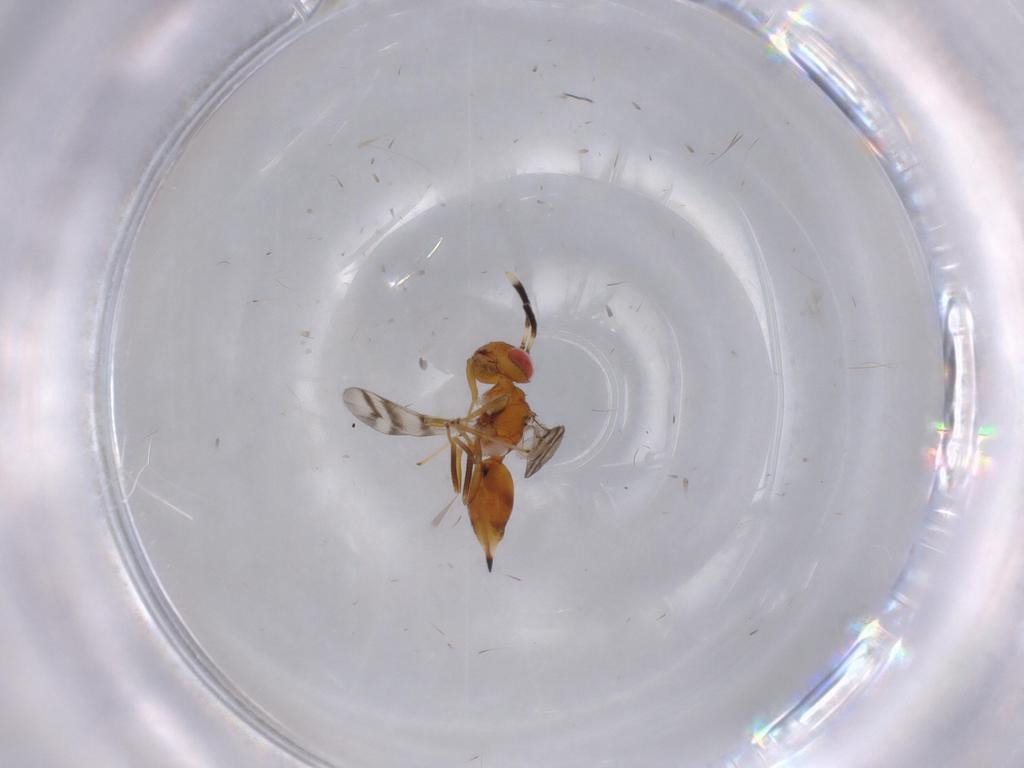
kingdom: Animalia
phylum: Arthropoda
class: Insecta
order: Hymenoptera
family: Diparidae
